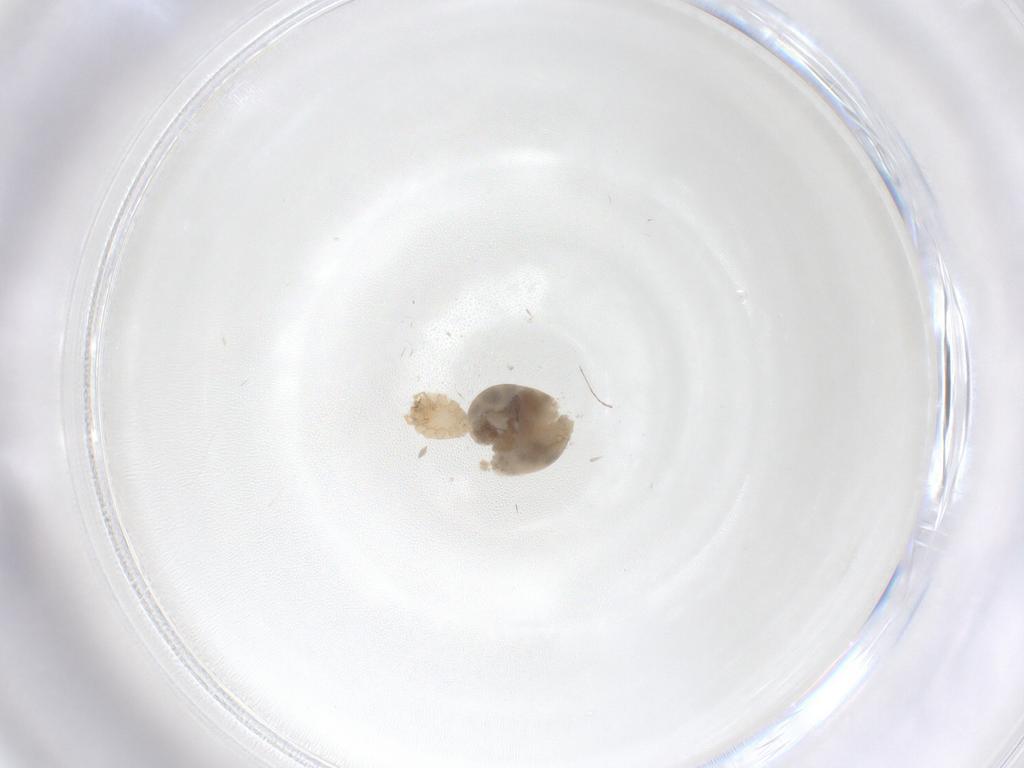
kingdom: Animalia
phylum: Arthropoda
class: Arachnida
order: Araneae
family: Oonopidae
